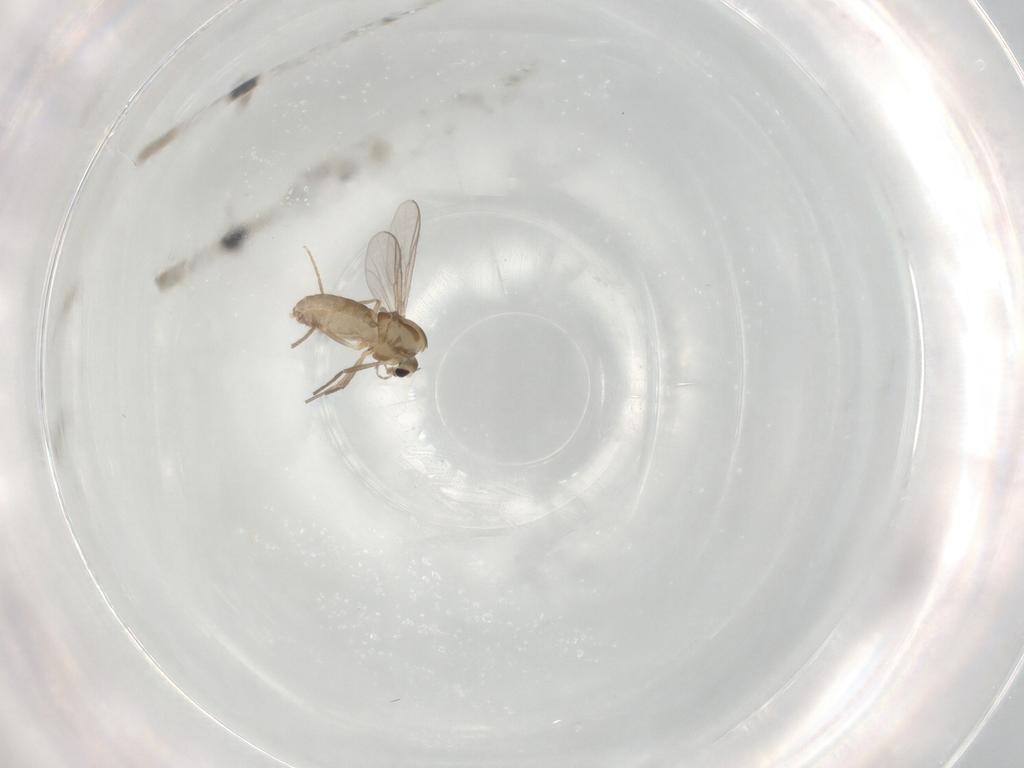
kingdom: Animalia
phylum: Arthropoda
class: Insecta
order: Diptera
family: Chironomidae
